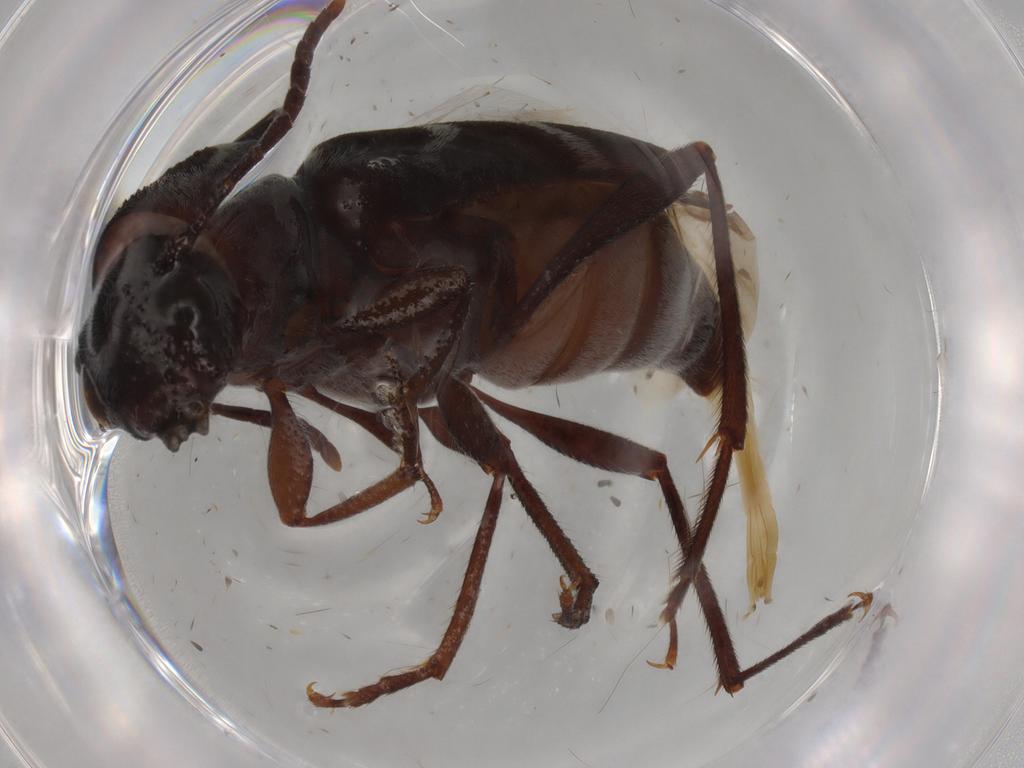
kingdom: Animalia
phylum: Arthropoda
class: Insecta
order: Coleoptera
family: Cerambycidae
